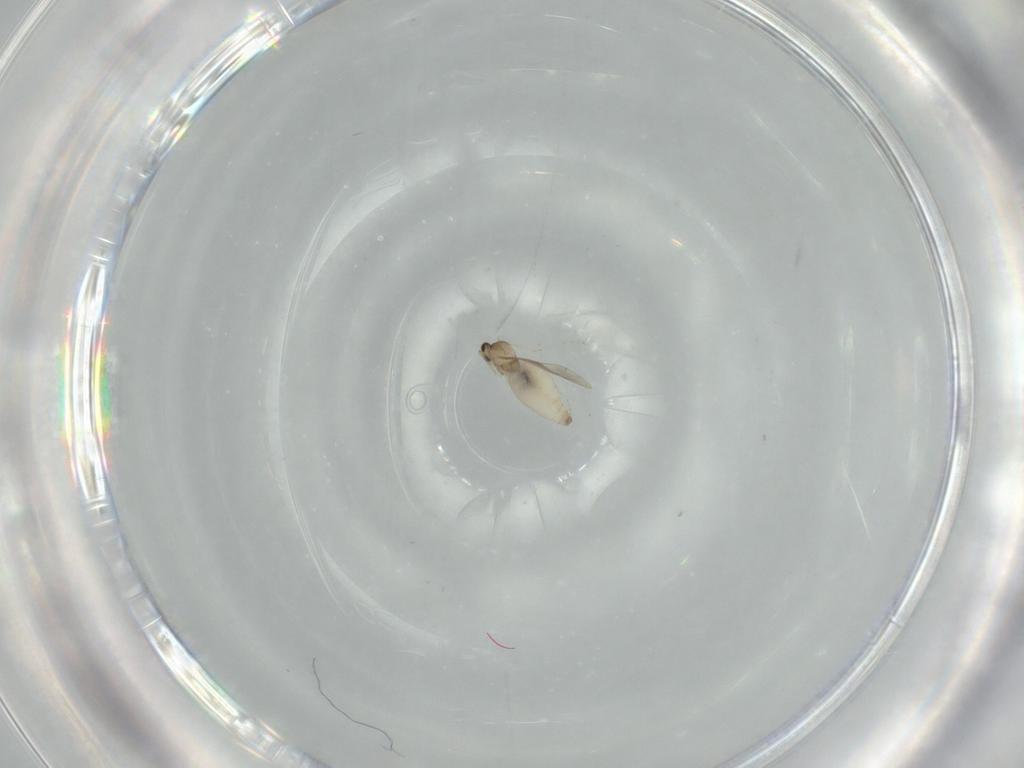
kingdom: Animalia
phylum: Arthropoda
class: Insecta
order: Diptera
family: Cecidomyiidae
